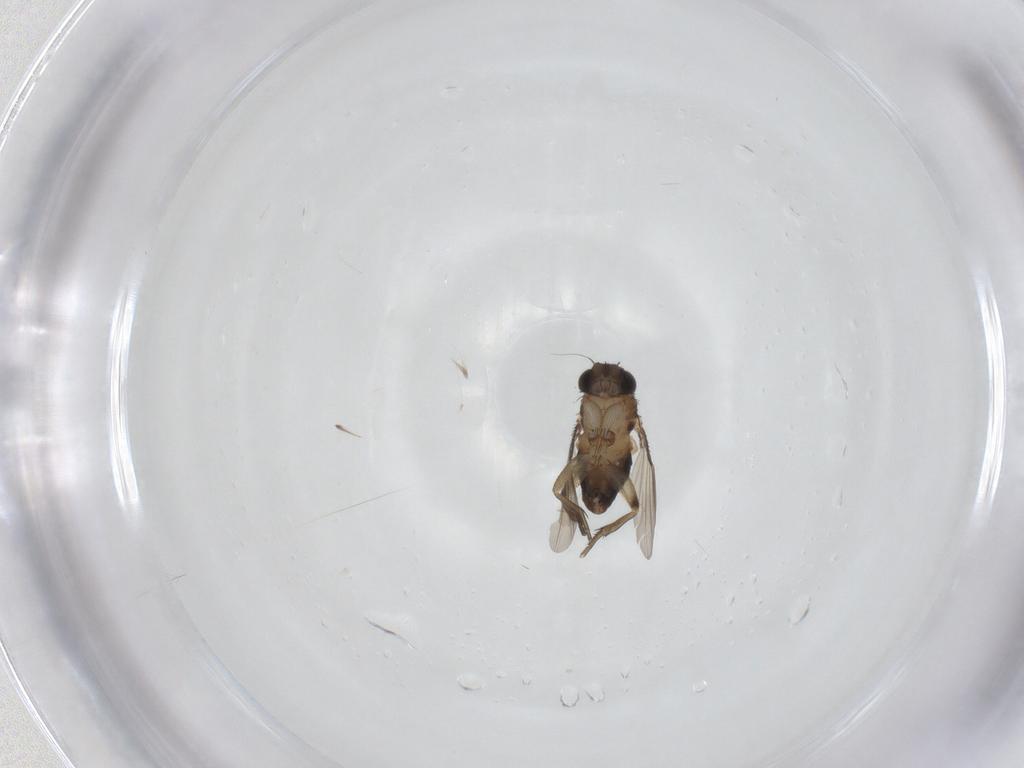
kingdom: Animalia
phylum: Arthropoda
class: Insecta
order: Diptera
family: Phoridae
